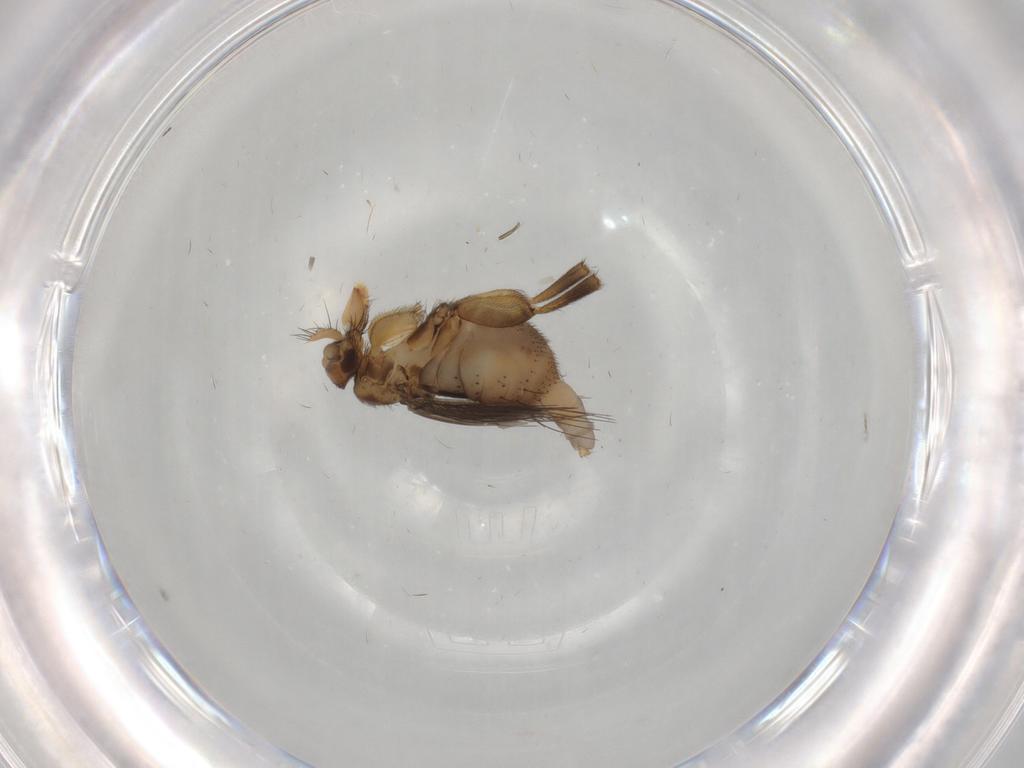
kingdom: Animalia
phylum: Arthropoda
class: Insecta
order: Diptera
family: Phoridae
